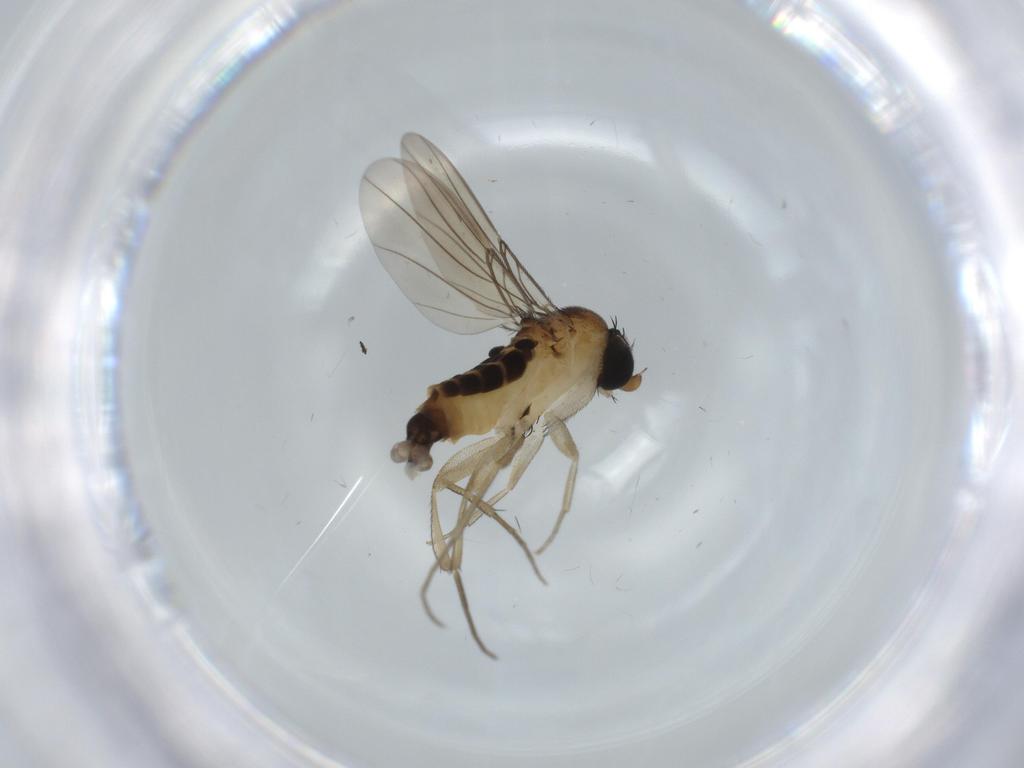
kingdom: Animalia
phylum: Arthropoda
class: Insecta
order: Diptera
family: Phoridae
